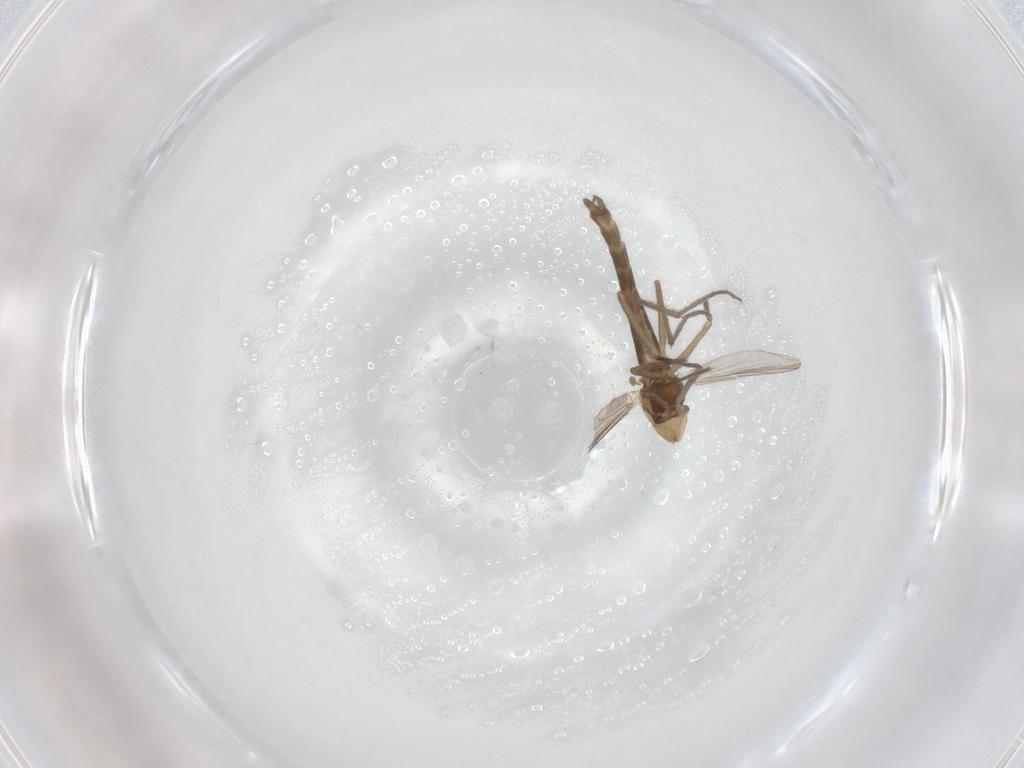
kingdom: Animalia
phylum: Arthropoda
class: Insecta
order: Diptera
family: Chironomidae
